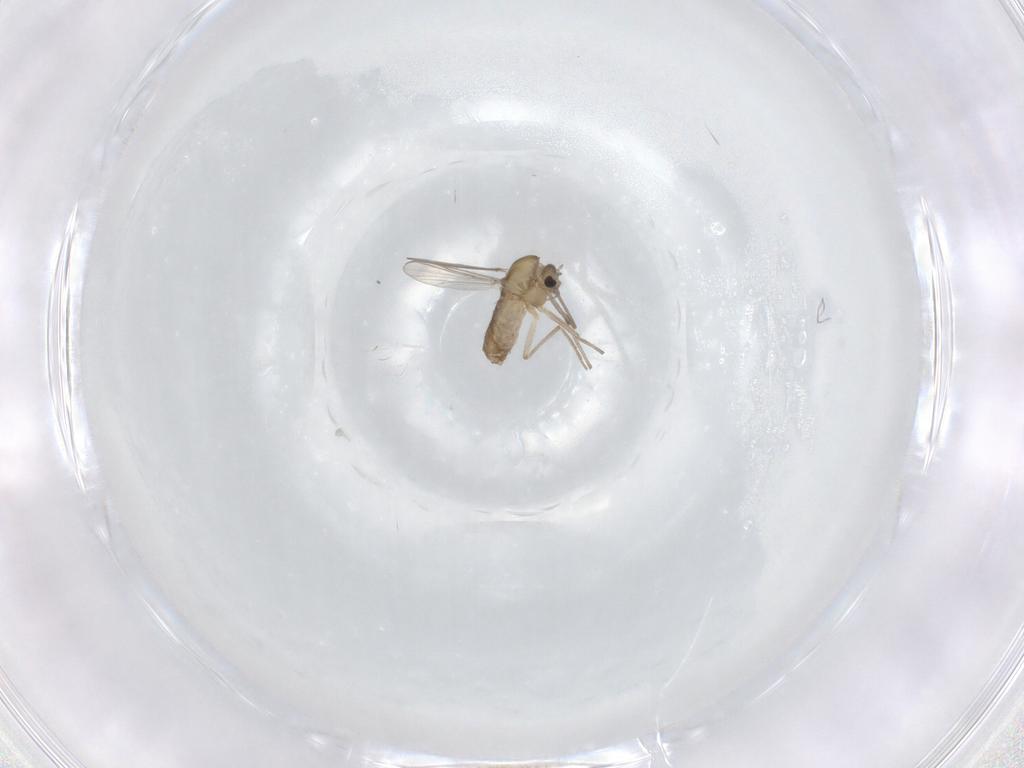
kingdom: Animalia
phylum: Arthropoda
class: Insecta
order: Diptera
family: Chironomidae
